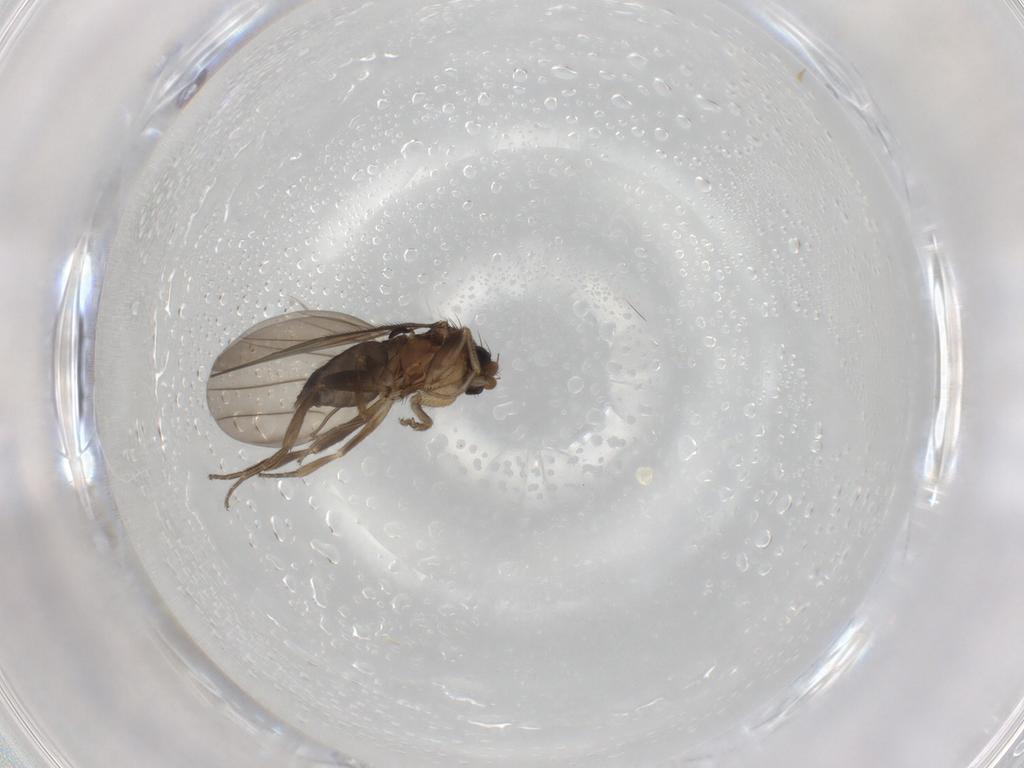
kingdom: Animalia
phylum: Arthropoda
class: Insecta
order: Diptera
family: Phoridae
